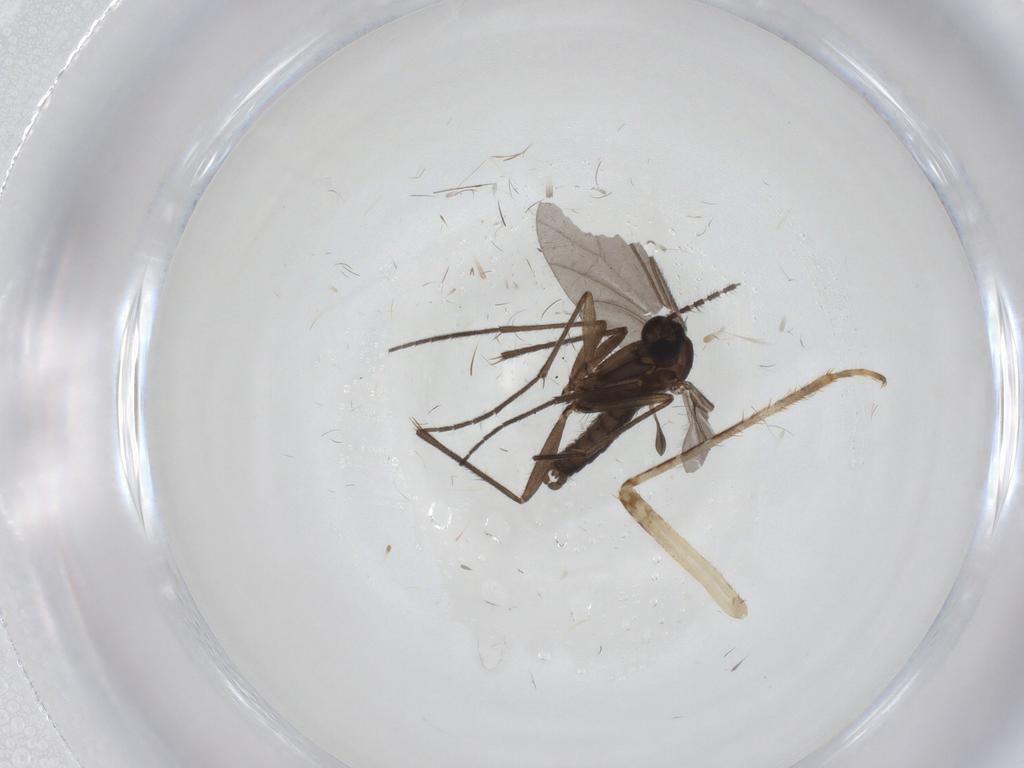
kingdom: Animalia
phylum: Arthropoda
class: Insecta
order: Diptera
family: Sciaridae
